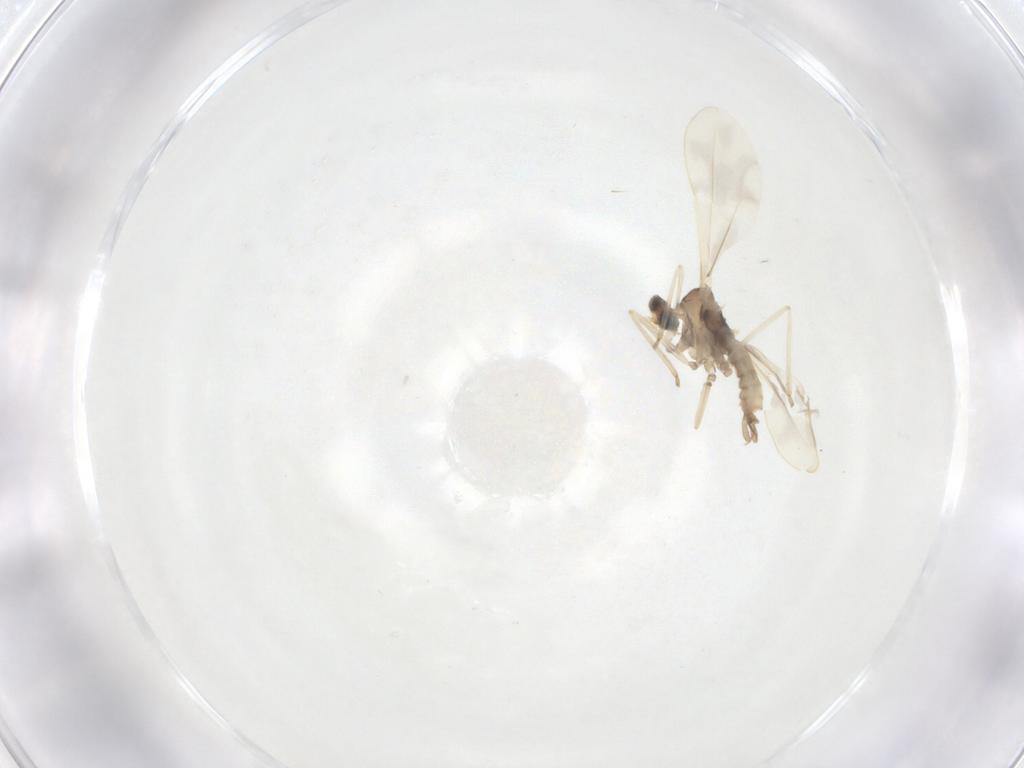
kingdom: Animalia
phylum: Arthropoda
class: Insecta
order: Diptera
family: Cecidomyiidae
